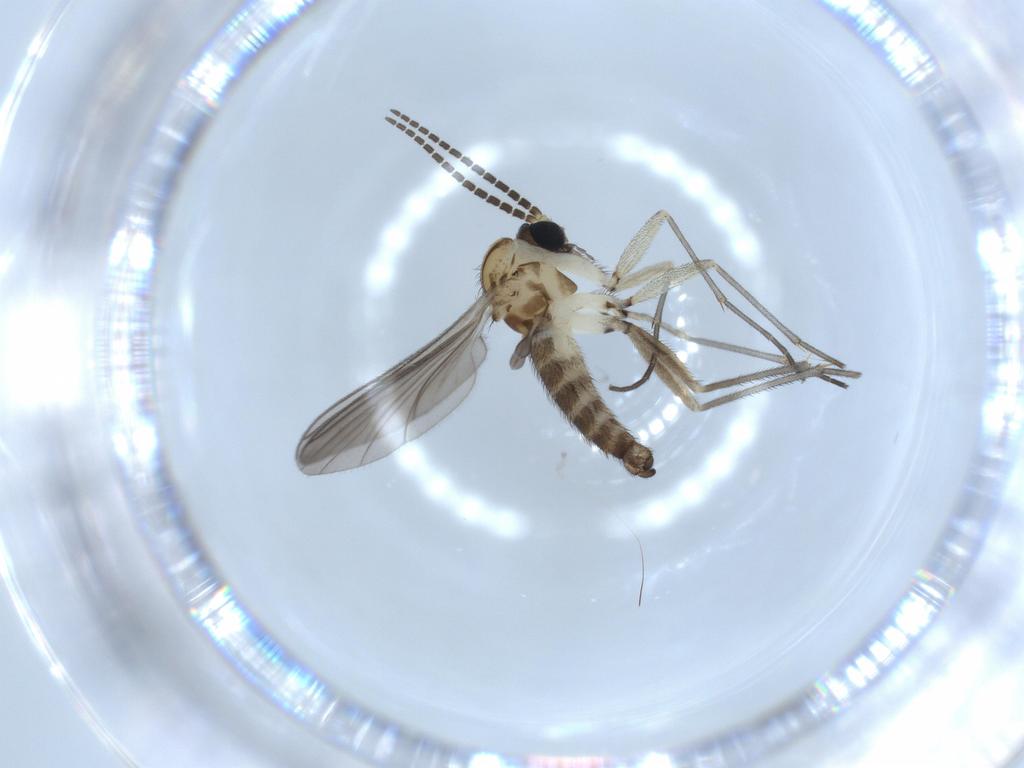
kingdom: Animalia
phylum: Arthropoda
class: Insecta
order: Diptera
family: Sciaridae
